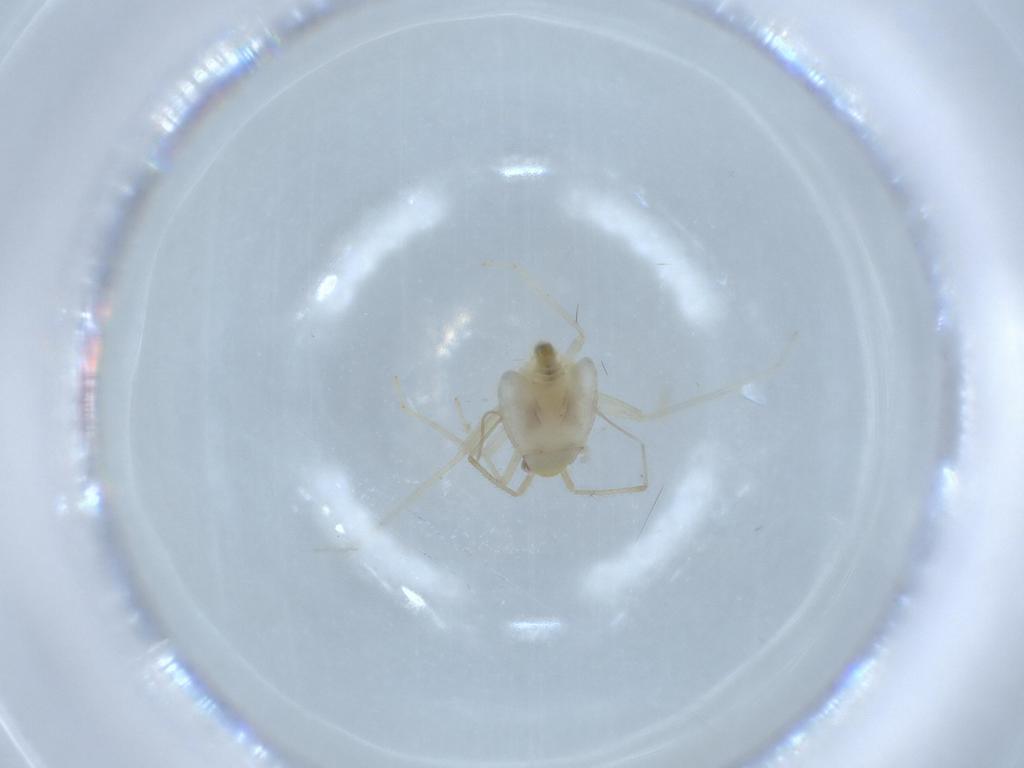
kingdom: Animalia
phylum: Arthropoda
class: Insecta
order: Hemiptera
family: Miridae
